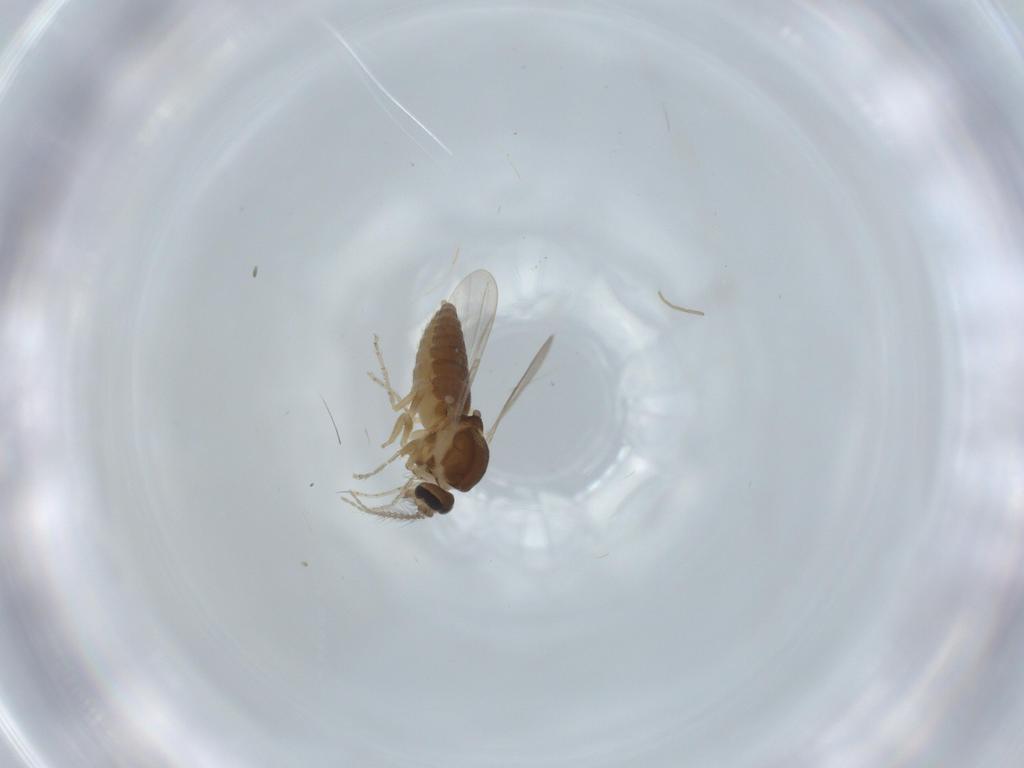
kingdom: Animalia
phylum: Arthropoda
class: Insecta
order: Diptera
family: Ceratopogonidae
